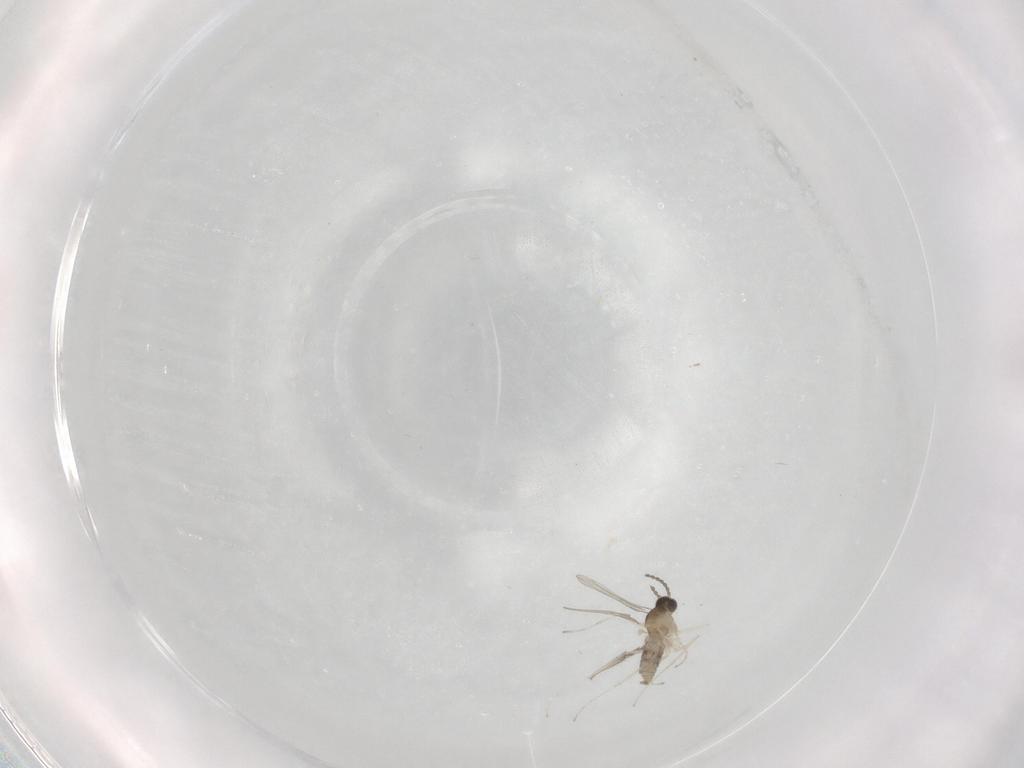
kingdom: Animalia
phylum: Arthropoda
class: Insecta
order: Diptera
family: Cecidomyiidae
